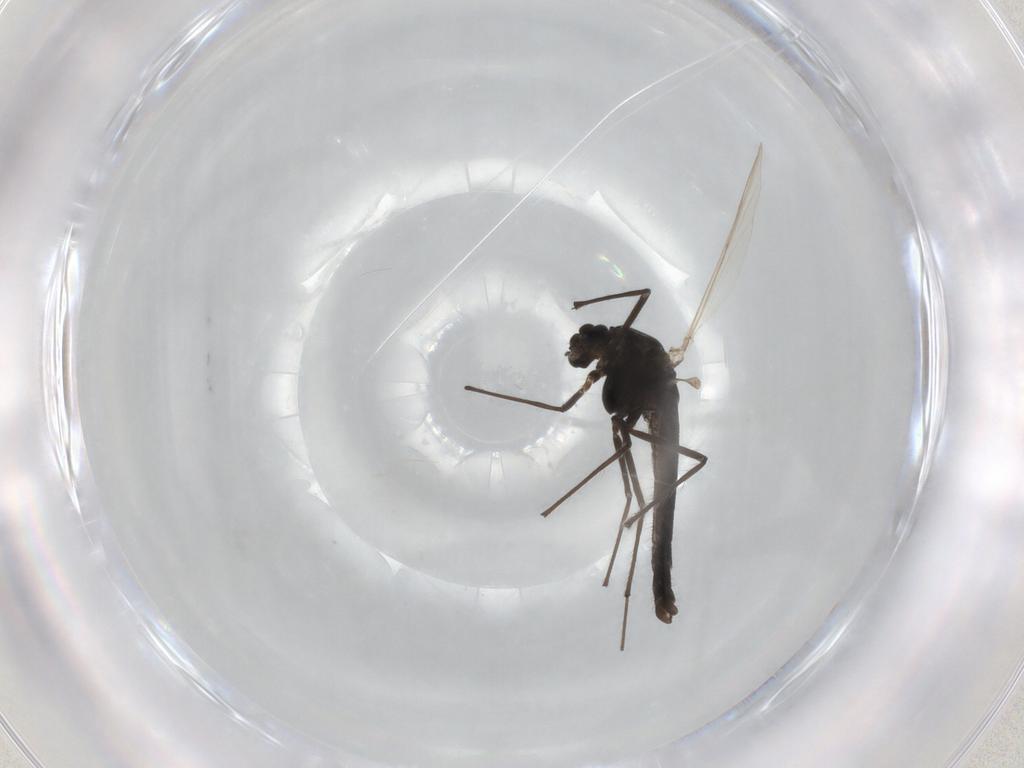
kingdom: Animalia
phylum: Arthropoda
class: Insecta
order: Diptera
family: Chironomidae
